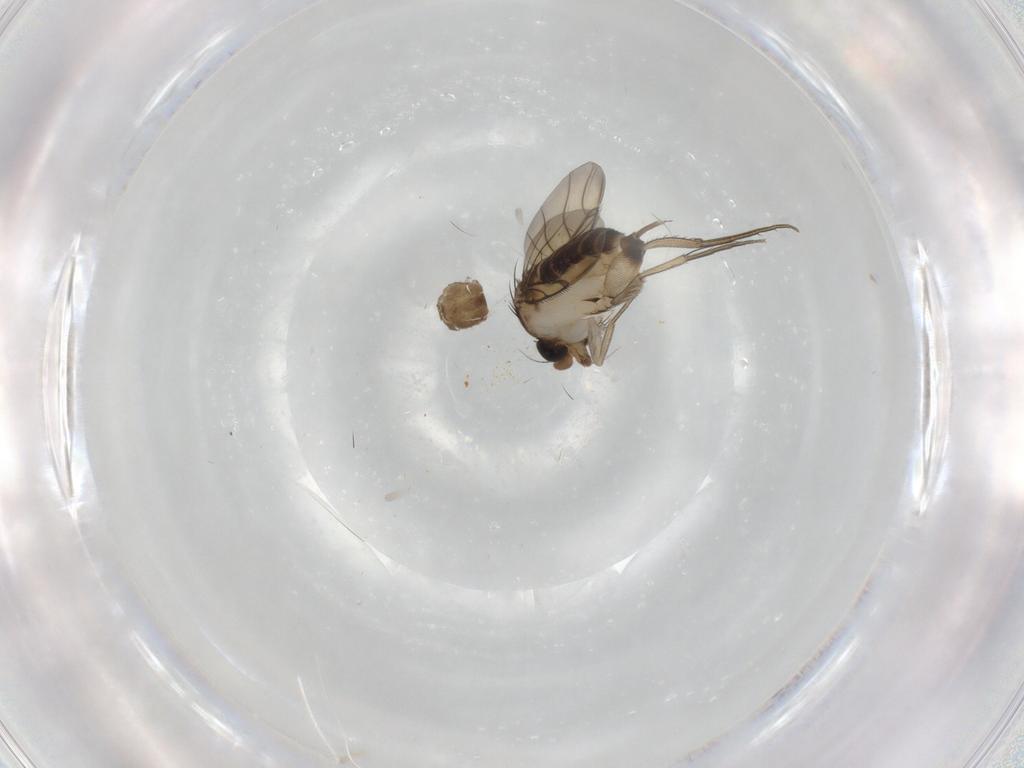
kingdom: Animalia
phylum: Arthropoda
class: Insecta
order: Diptera
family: Phoridae
